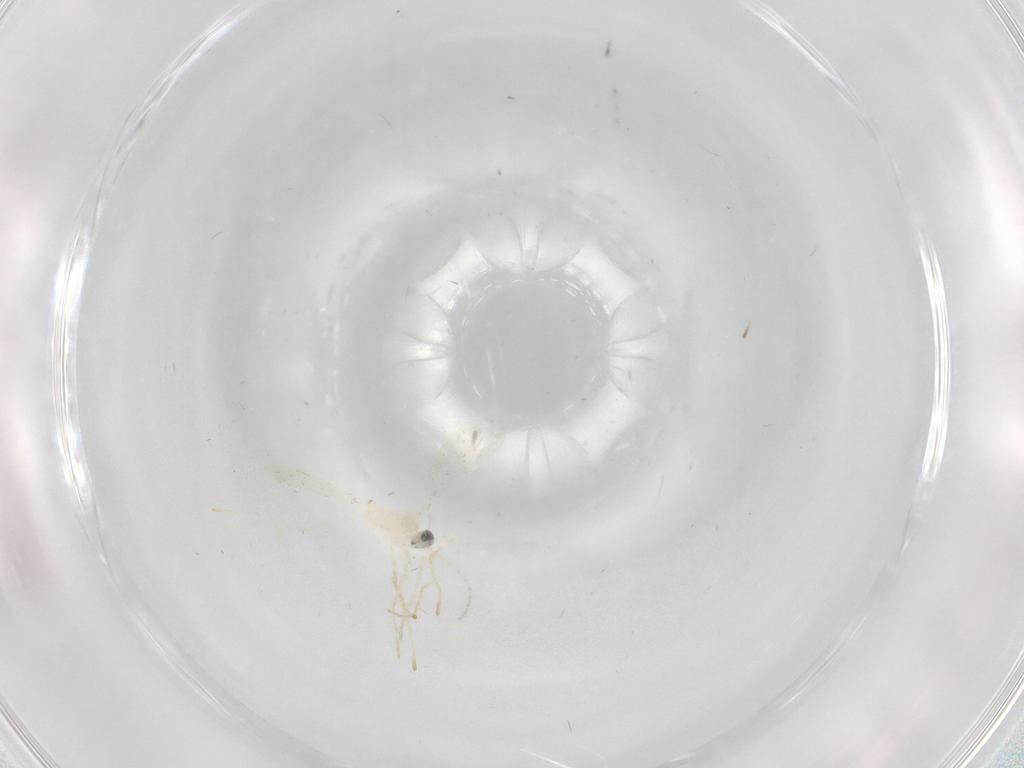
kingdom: Animalia
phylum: Arthropoda
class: Insecta
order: Diptera
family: Cecidomyiidae
